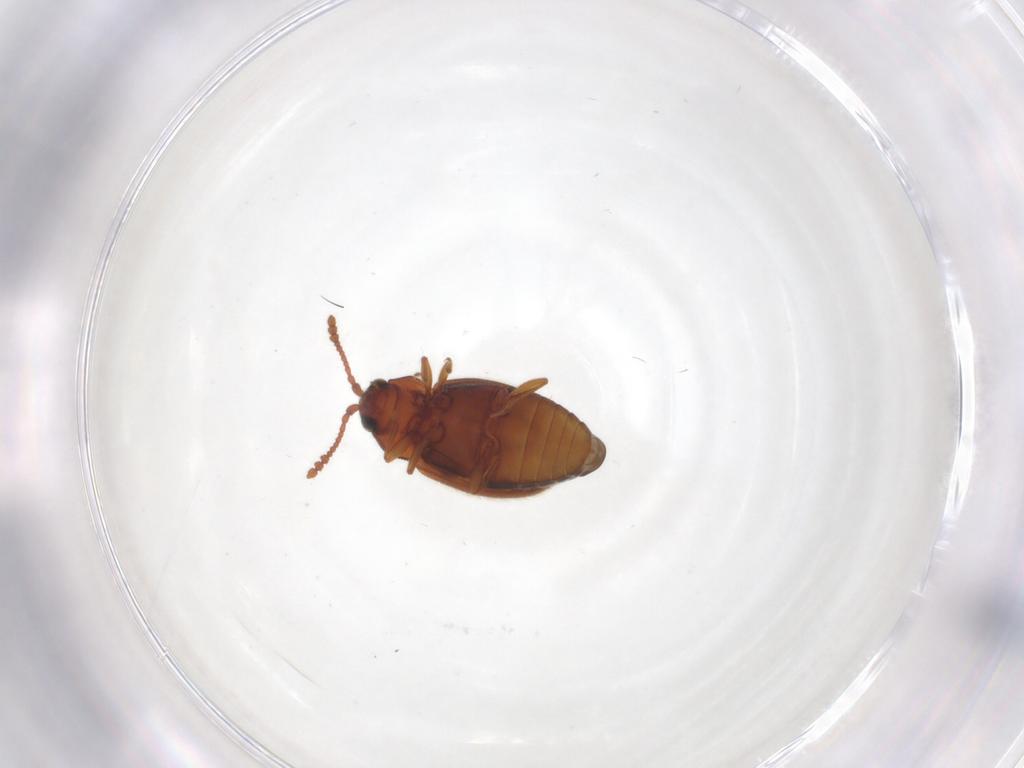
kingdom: Animalia
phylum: Arthropoda
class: Insecta
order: Coleoptera
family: Cryptophagidae
